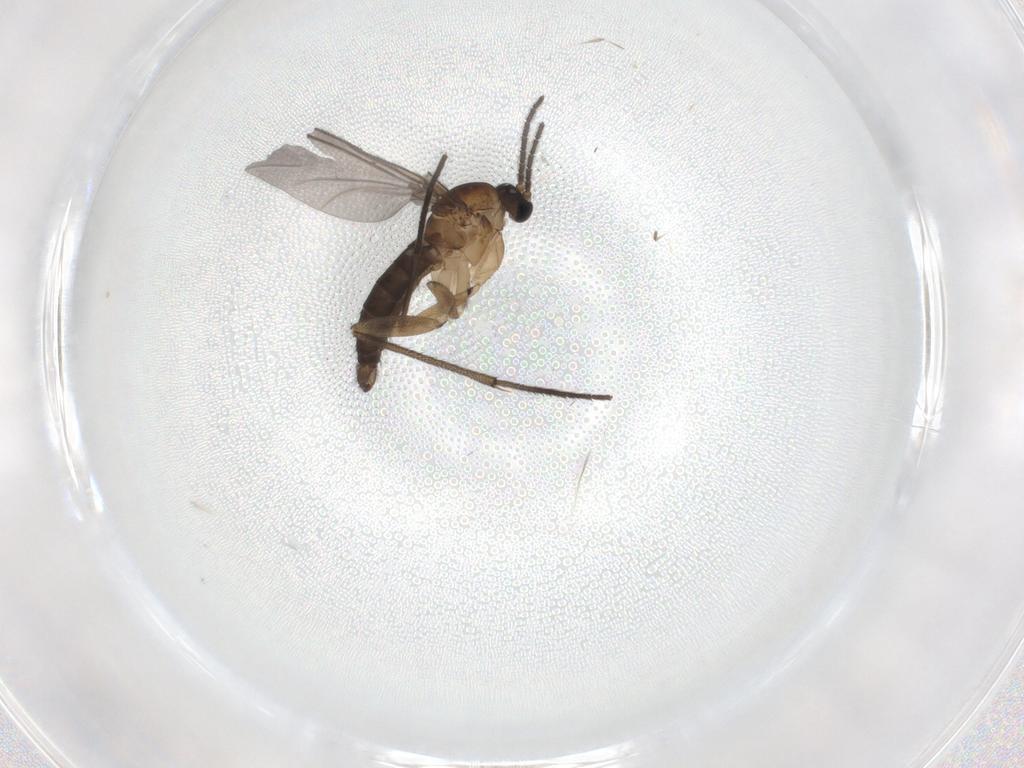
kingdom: Animalia
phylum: Arthropoda
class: Insecta
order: Diptera
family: Sciaridae
